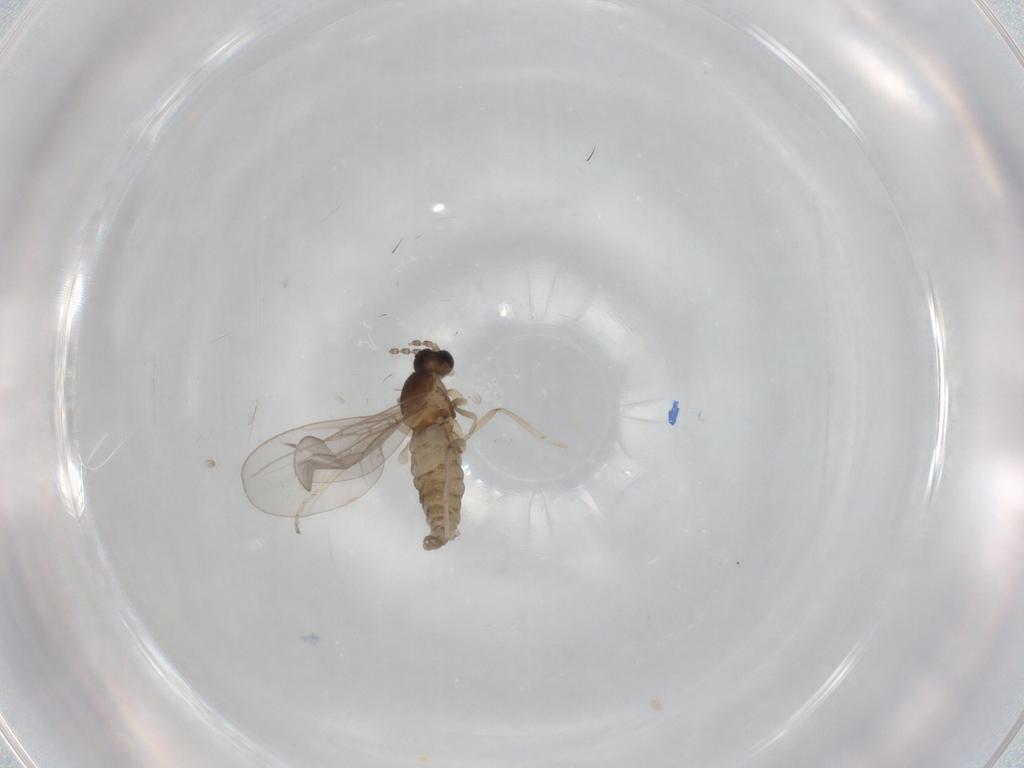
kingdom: Animalia
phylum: Arthropoda
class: Insecta
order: Diptera
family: Cecidomyiidae
